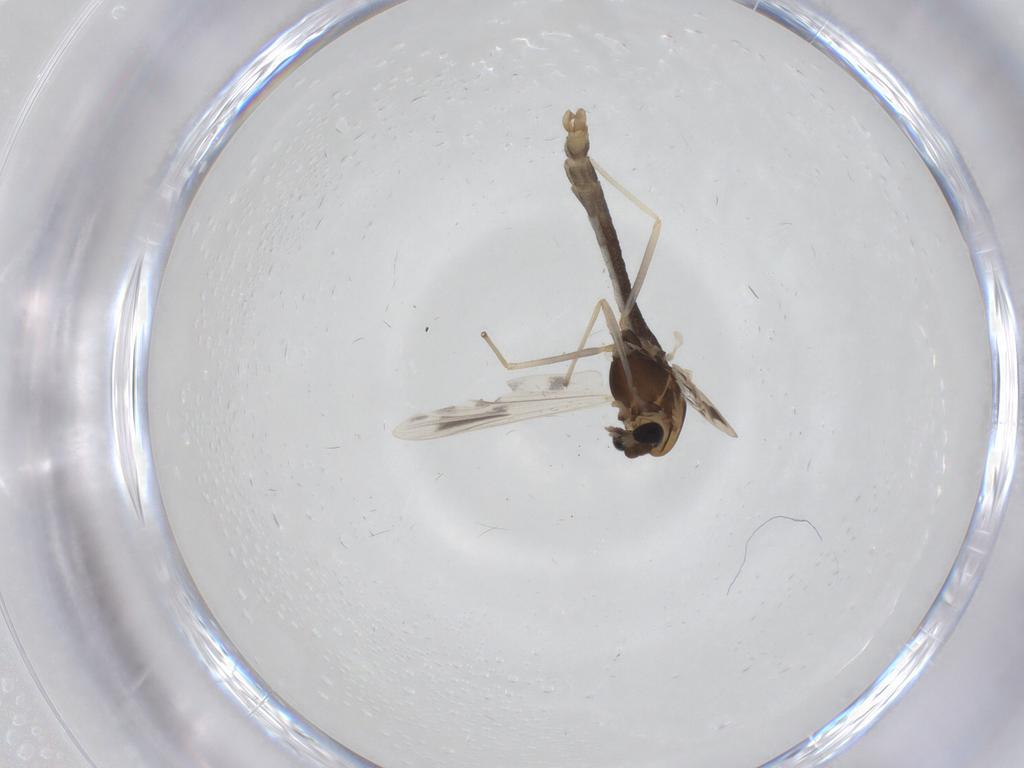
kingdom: Animalia
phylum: Arthropoda
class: Insecta
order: Diptera
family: Chironomidae
